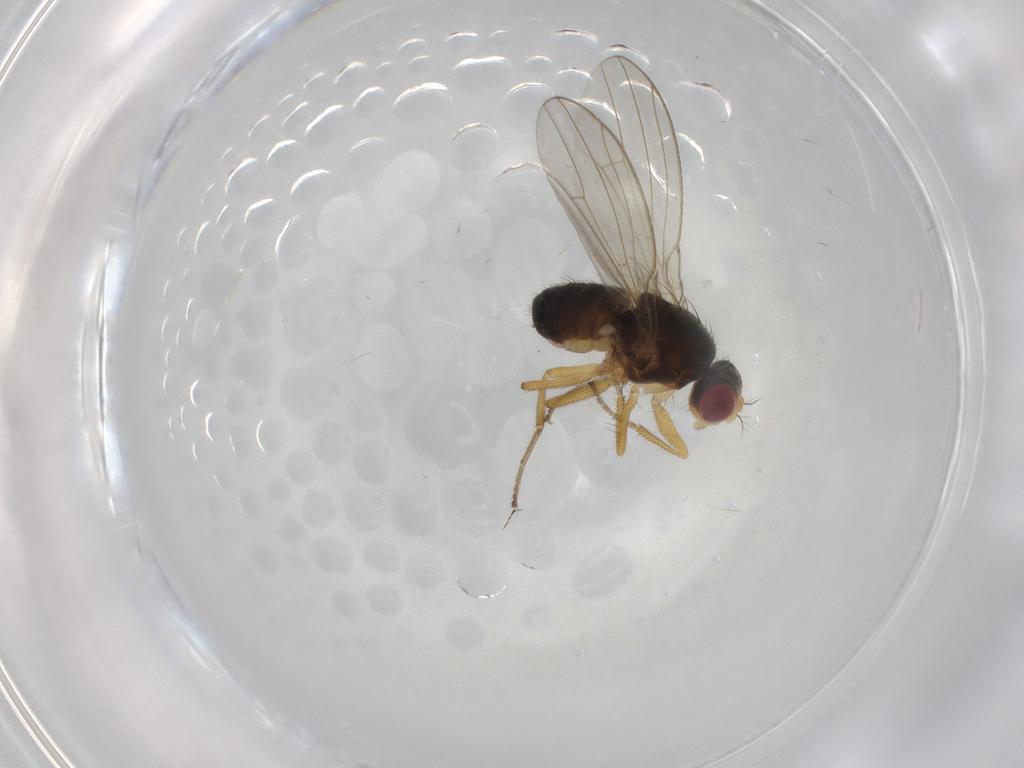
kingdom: Animalia
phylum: Arthropoda
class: Insecta
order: Diptera
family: Drosophilidae
